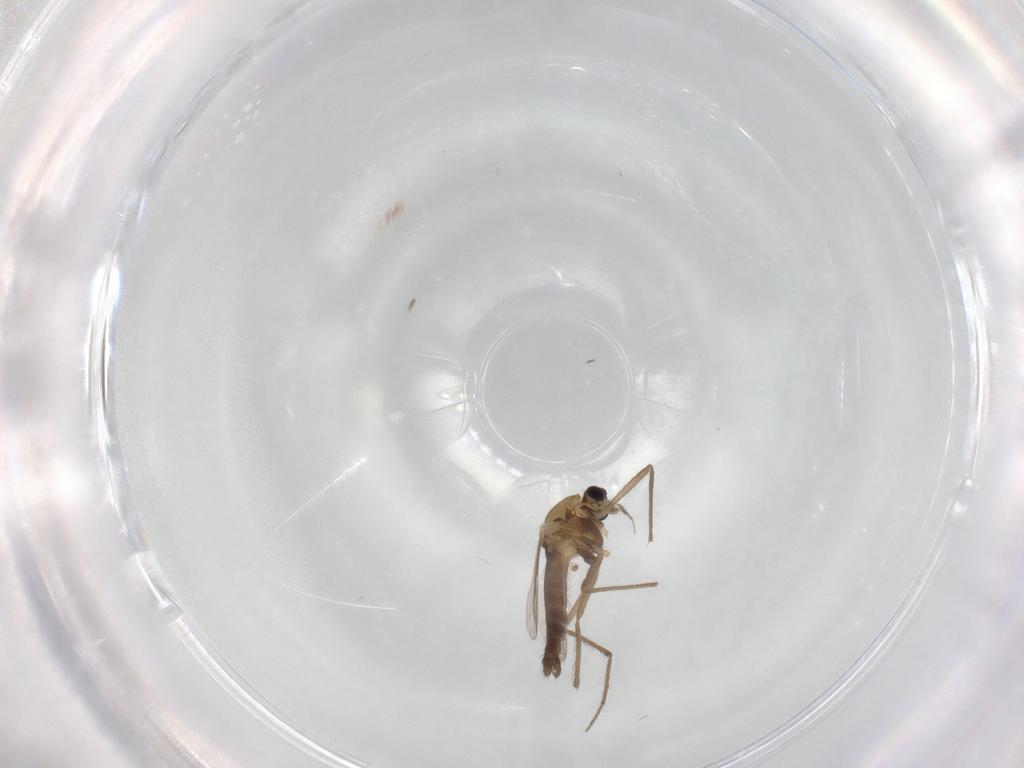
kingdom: Animalia
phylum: Arthropoda
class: Insecta
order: Diptera
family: Chironomidae
